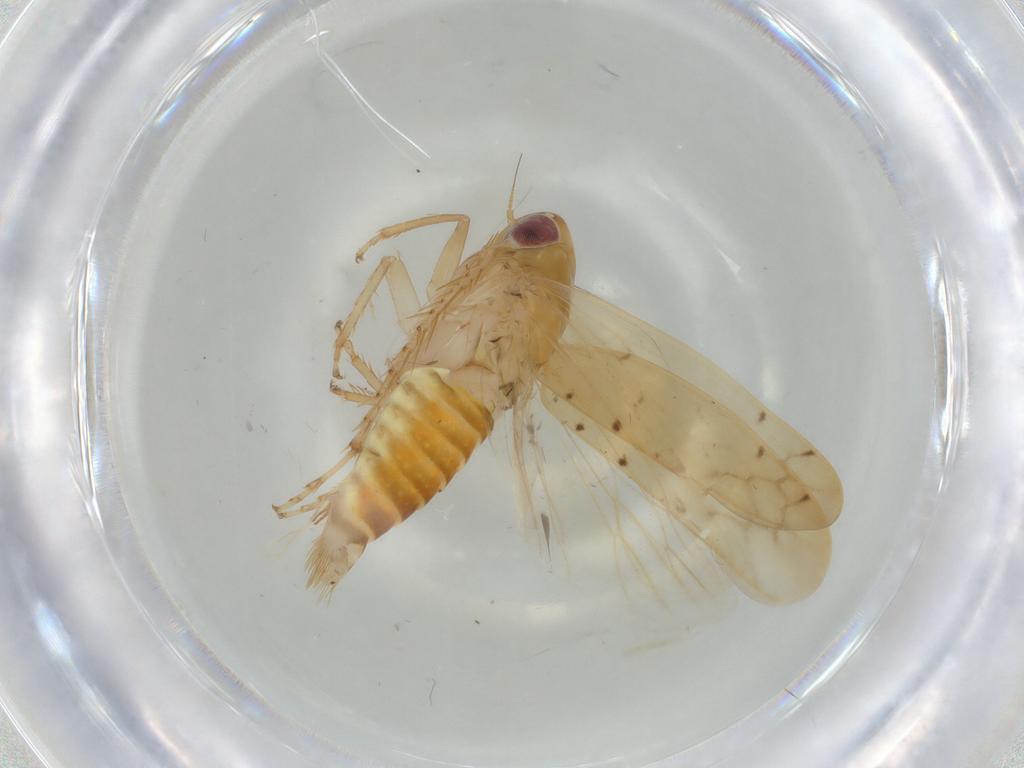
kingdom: Animalia
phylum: Arthropoda
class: Insecta
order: Hemiptera
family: Cicadellidae
